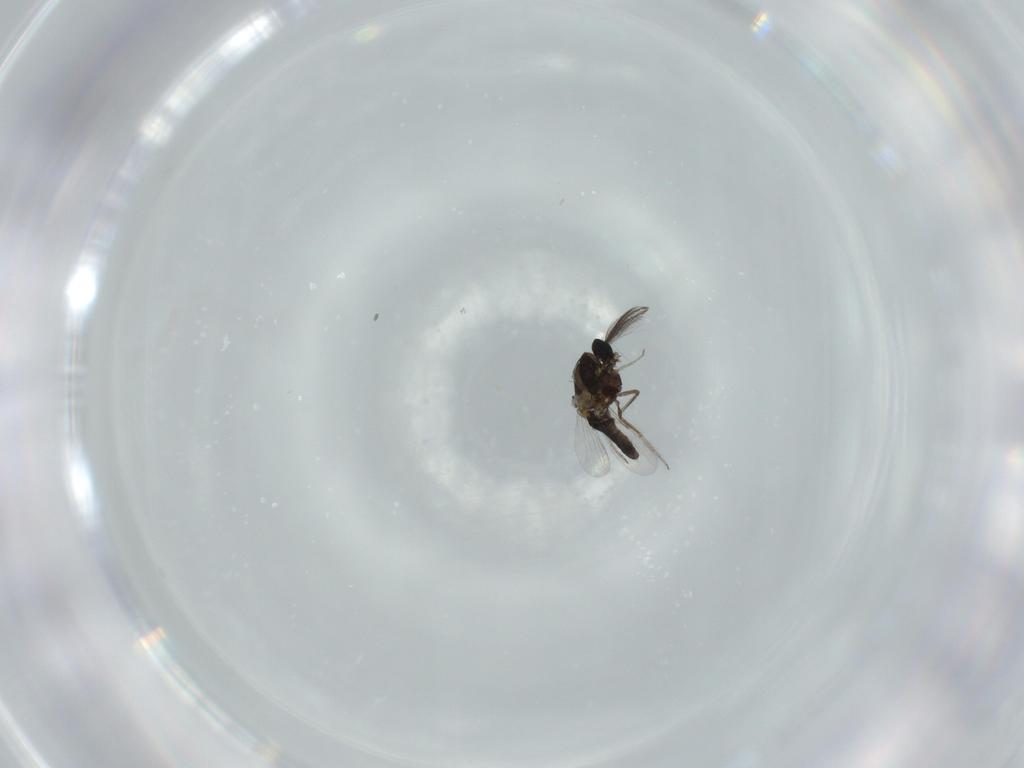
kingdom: Animalia
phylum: Arthropoda
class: Insecta
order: Diptera
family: Ceratopogonidae
